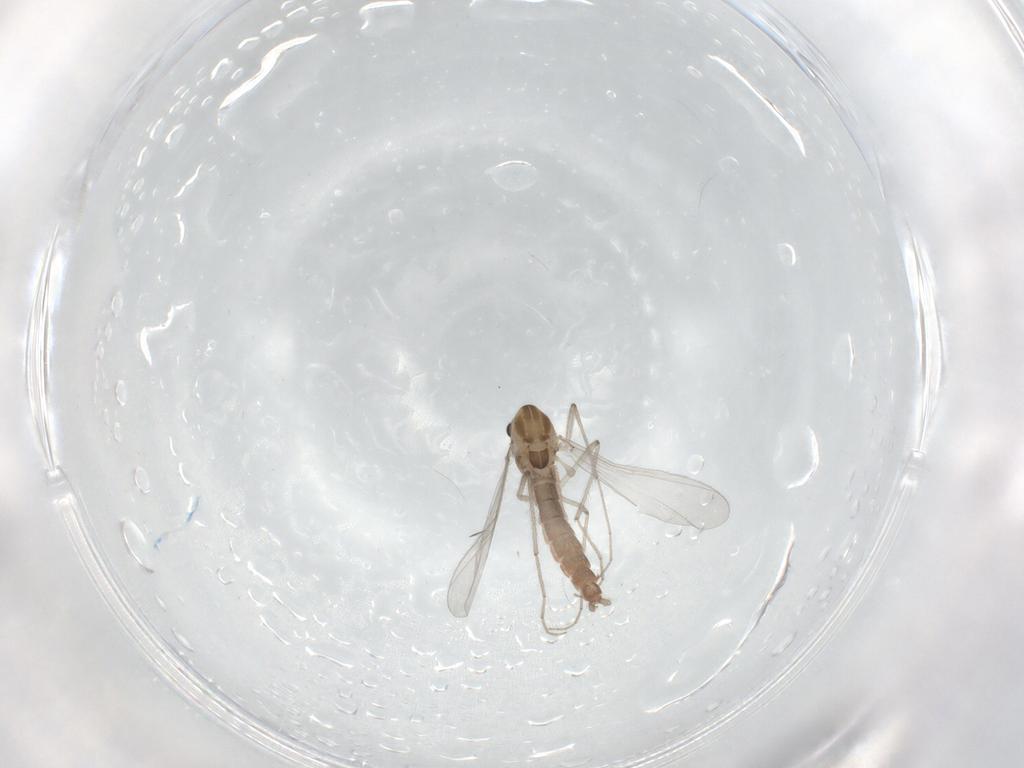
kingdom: Animalia
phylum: Arthropoda
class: Insecta
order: Diptera
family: Chironomidae
